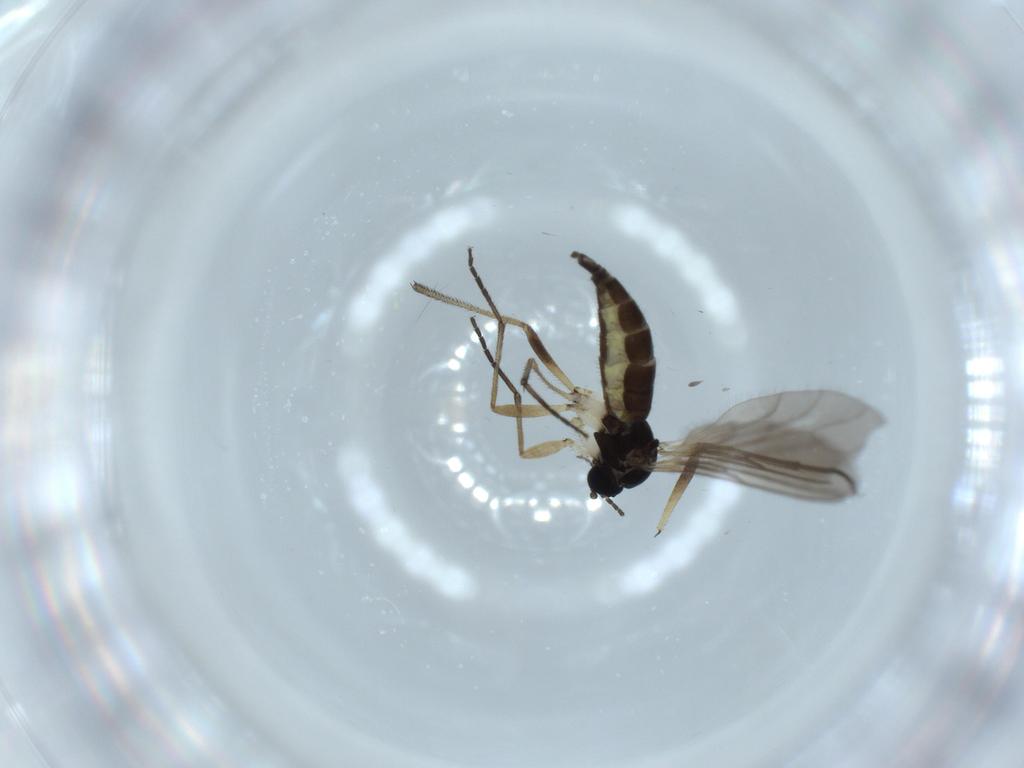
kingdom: Animalia
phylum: Arthropoda
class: Insecta
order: Diptera
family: Sciaridae
